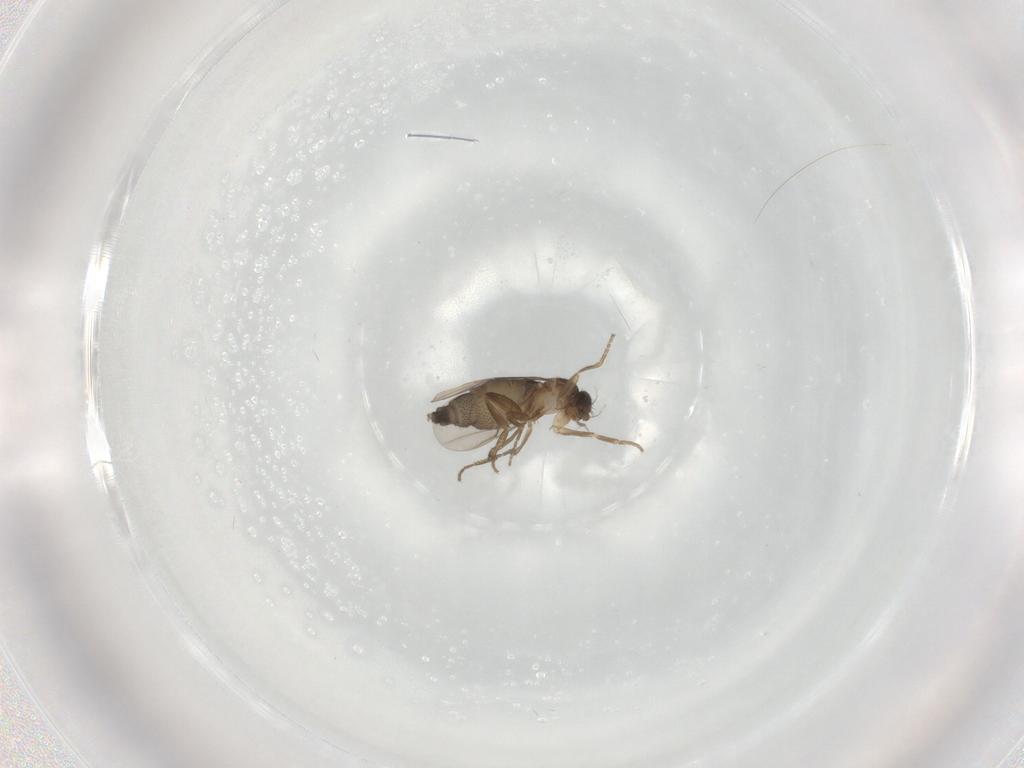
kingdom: Animalia
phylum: Arthropoda
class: Insecta
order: Diptera
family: Phoridae
